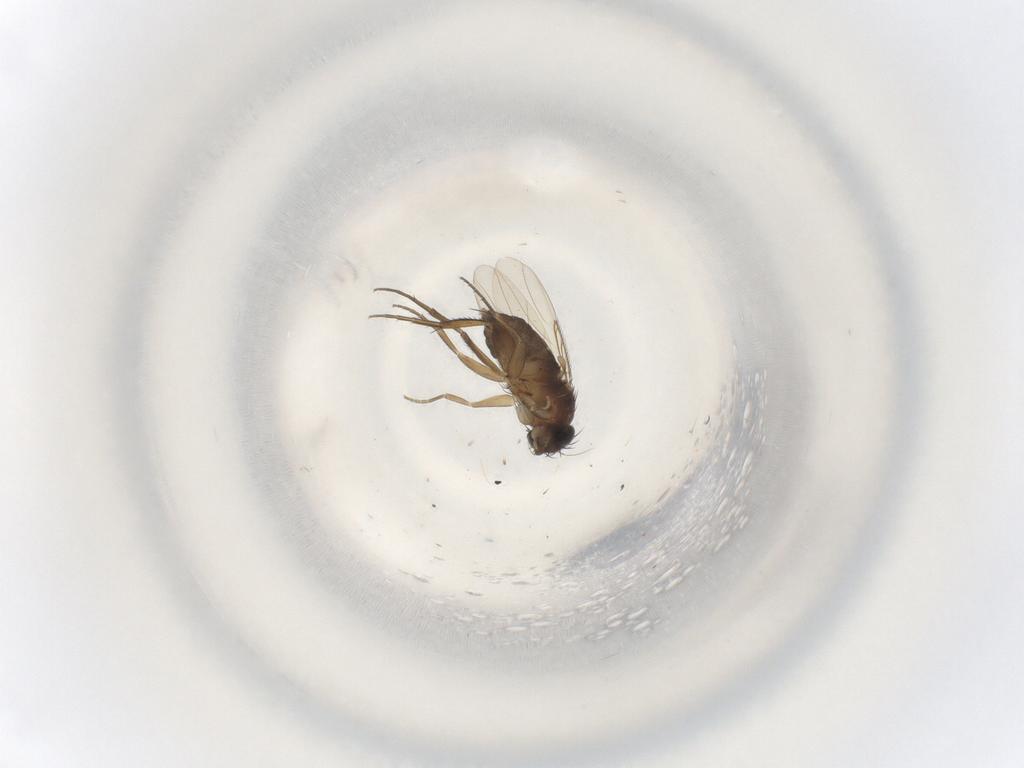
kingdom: Animalia
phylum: Arthropoda
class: Insecta
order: Diptera
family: Phoridae
